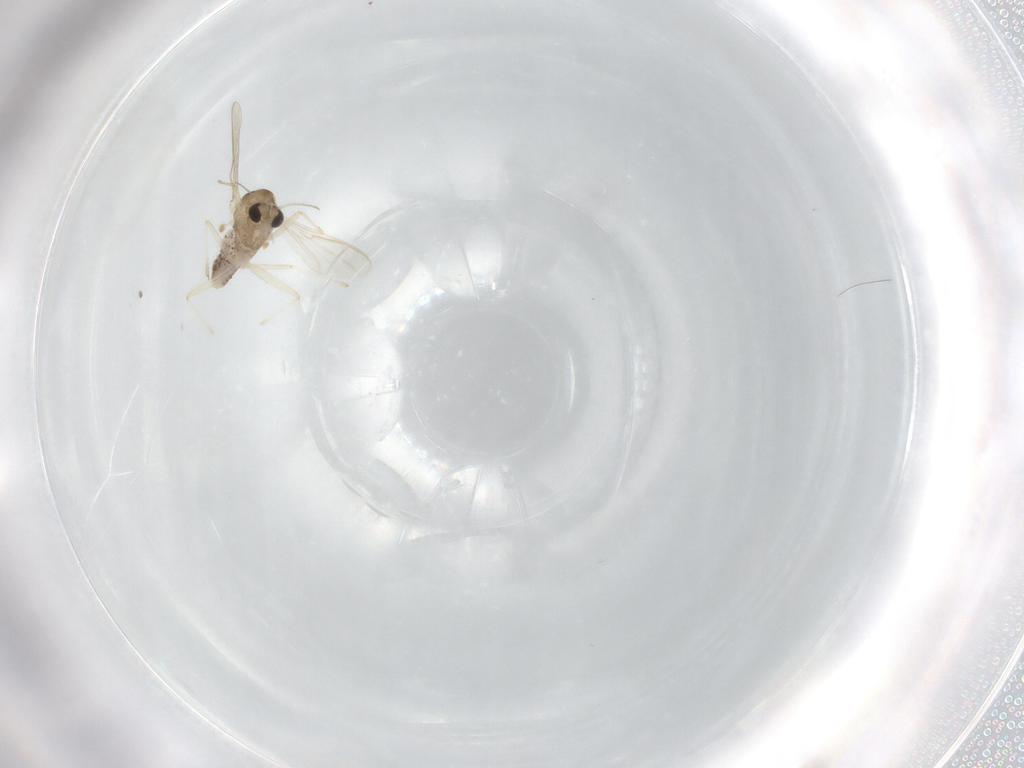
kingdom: Animalia
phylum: Arthropoda
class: Insecta
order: Diptera
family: Chironomidae
